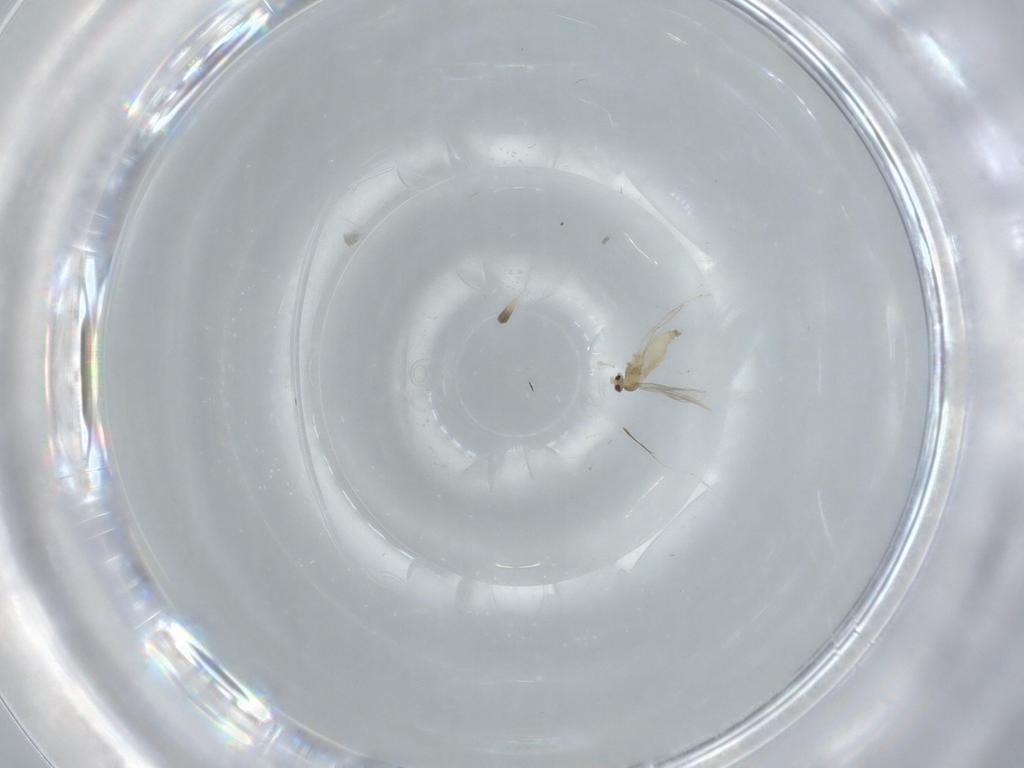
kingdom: Animalia
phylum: Arthropoda
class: Insecta
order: Diptera
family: Cecidomyiidae
